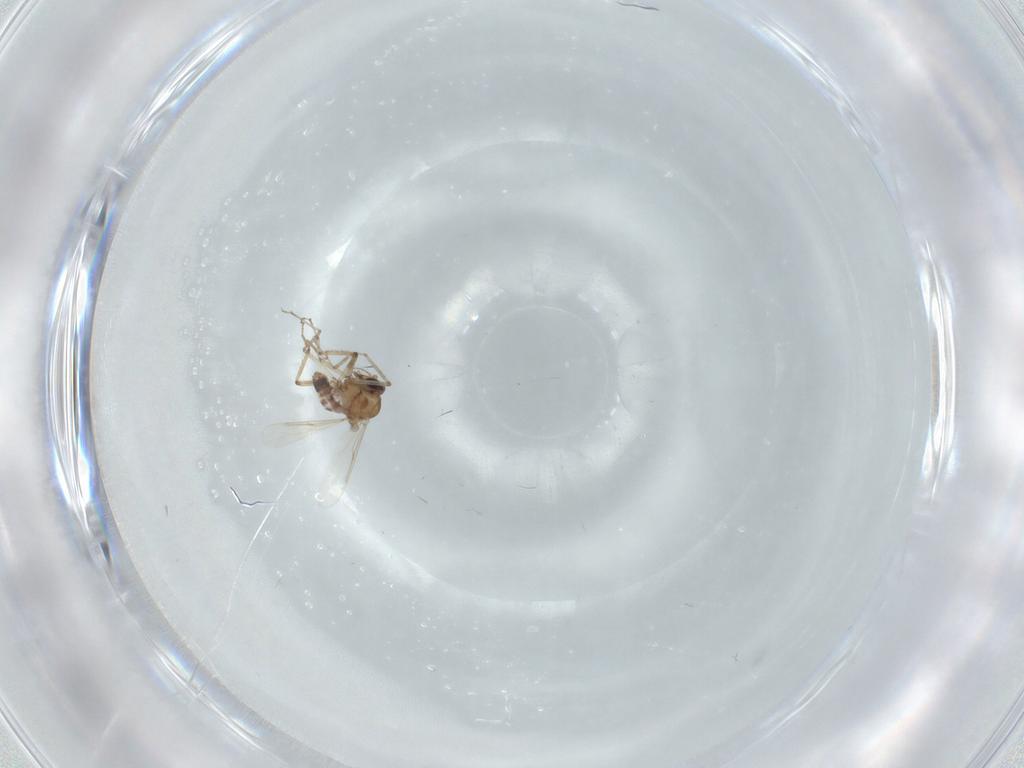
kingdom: Animalia
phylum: Arthropoda
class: Insecta
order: Diptera
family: Ceratopogonidae
